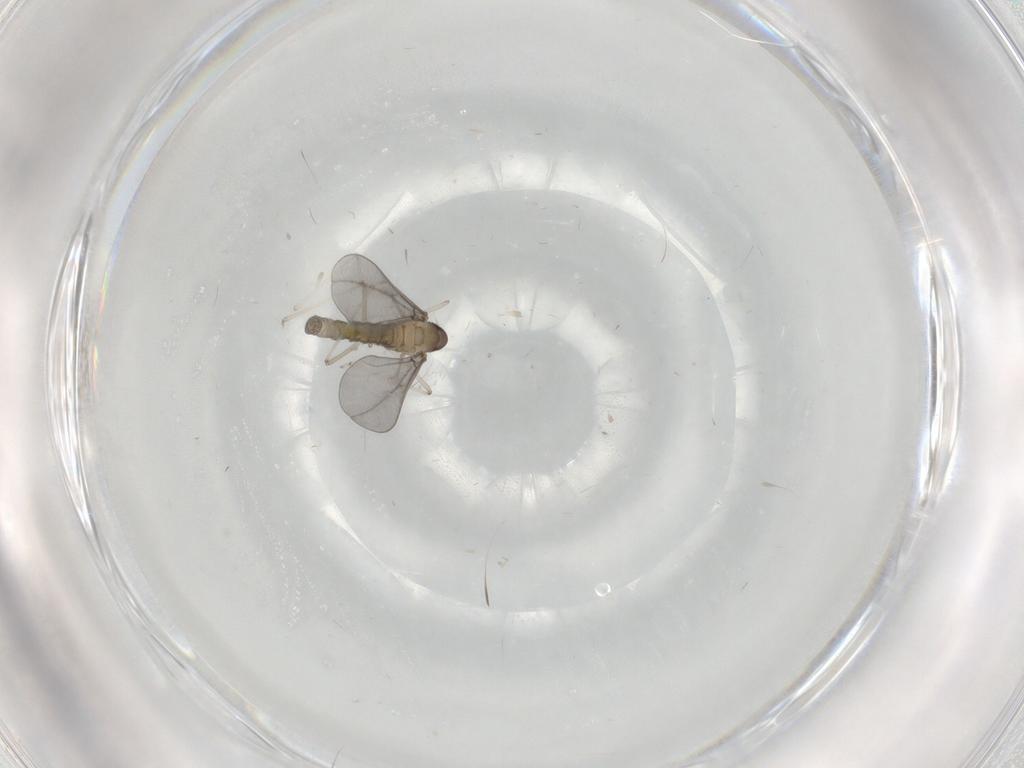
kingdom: Animalia
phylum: Arthropoda
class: Insecta
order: Diptera
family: Cecidomyiidae
